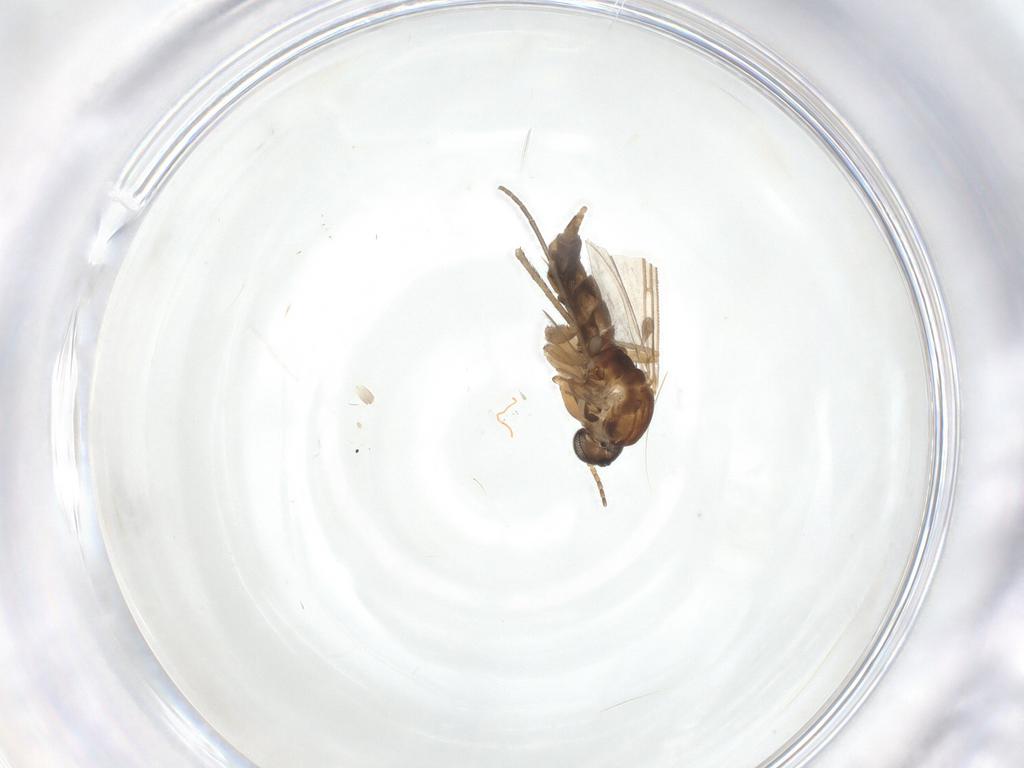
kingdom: Animalia
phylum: Arthropoda
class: Insecta
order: Diptera
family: Sciaridae
